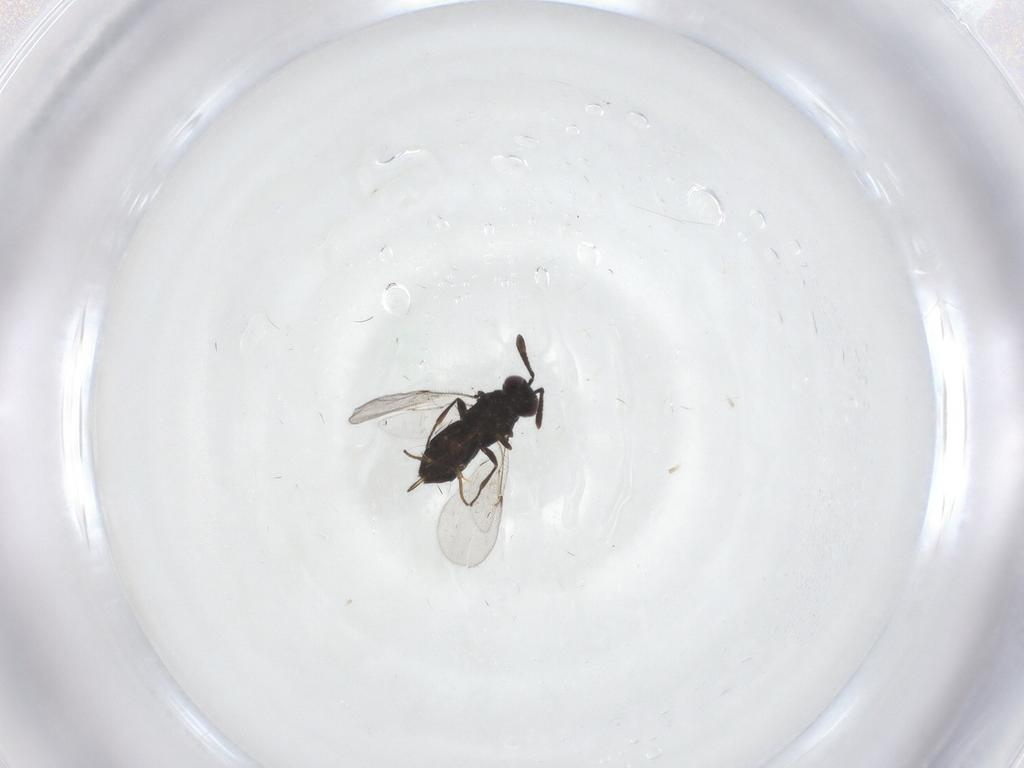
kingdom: Animalia
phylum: Arthropoda
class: Insecta
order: Hymenoptera
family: Encyrtidae
